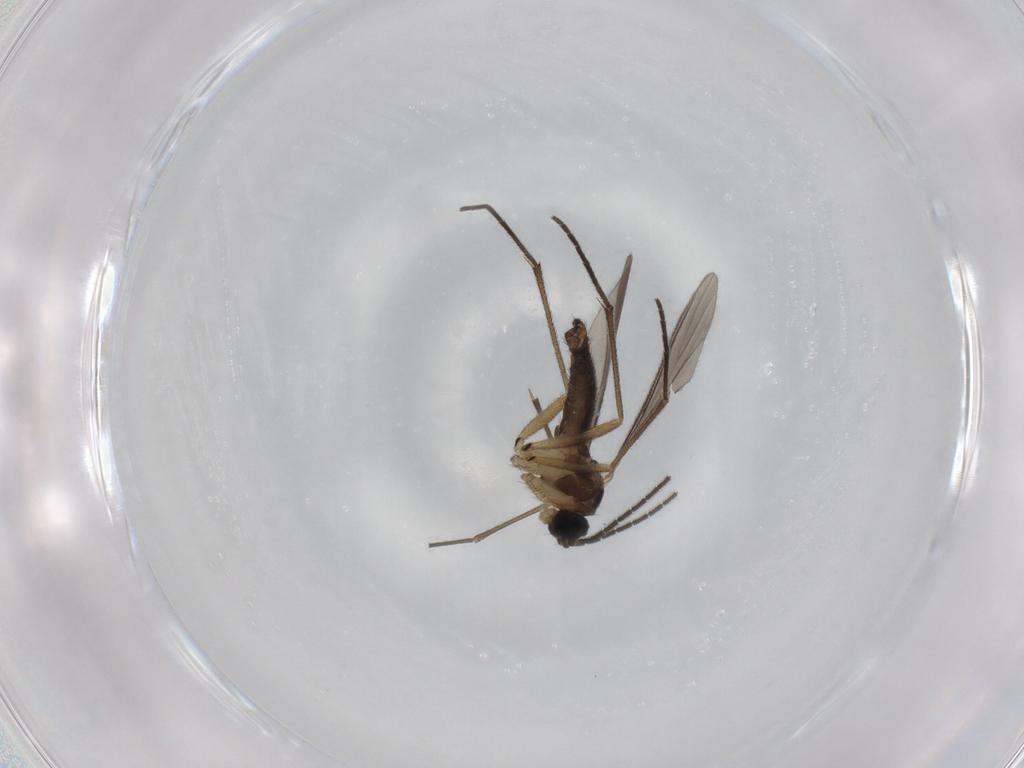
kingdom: Animalia
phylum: Arthropoda
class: Insecta
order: Diptera
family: Sciaridae
